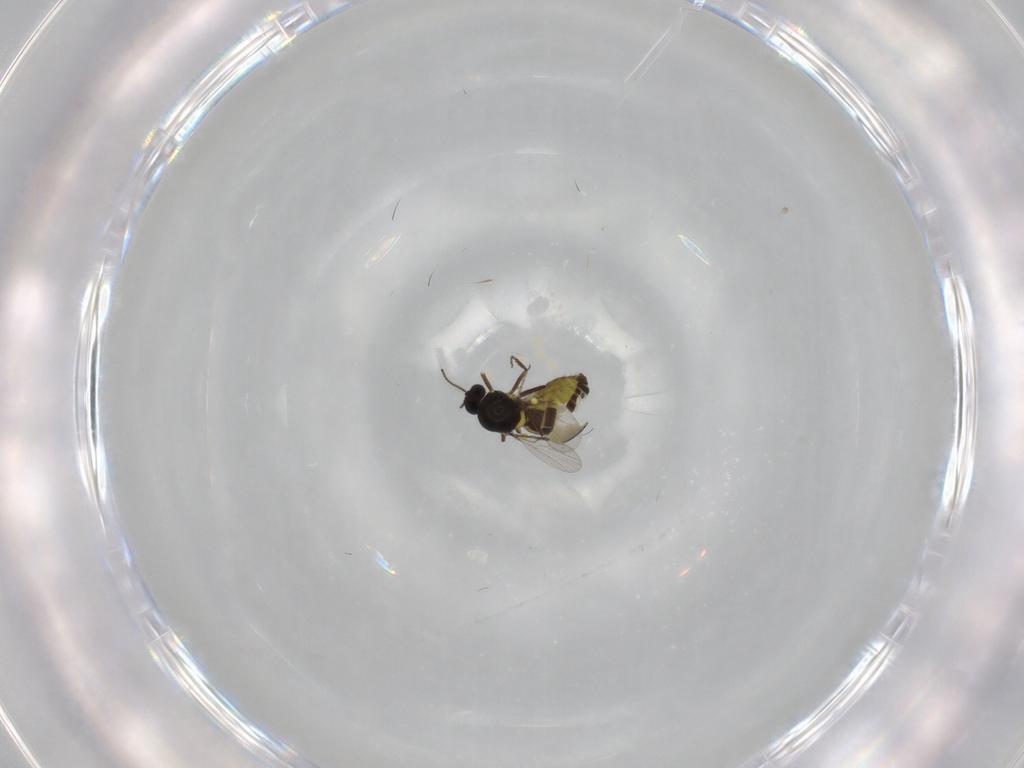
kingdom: Animalia
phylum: Arthropoda
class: Insecta
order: Diptera
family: Ceratopogonidae
